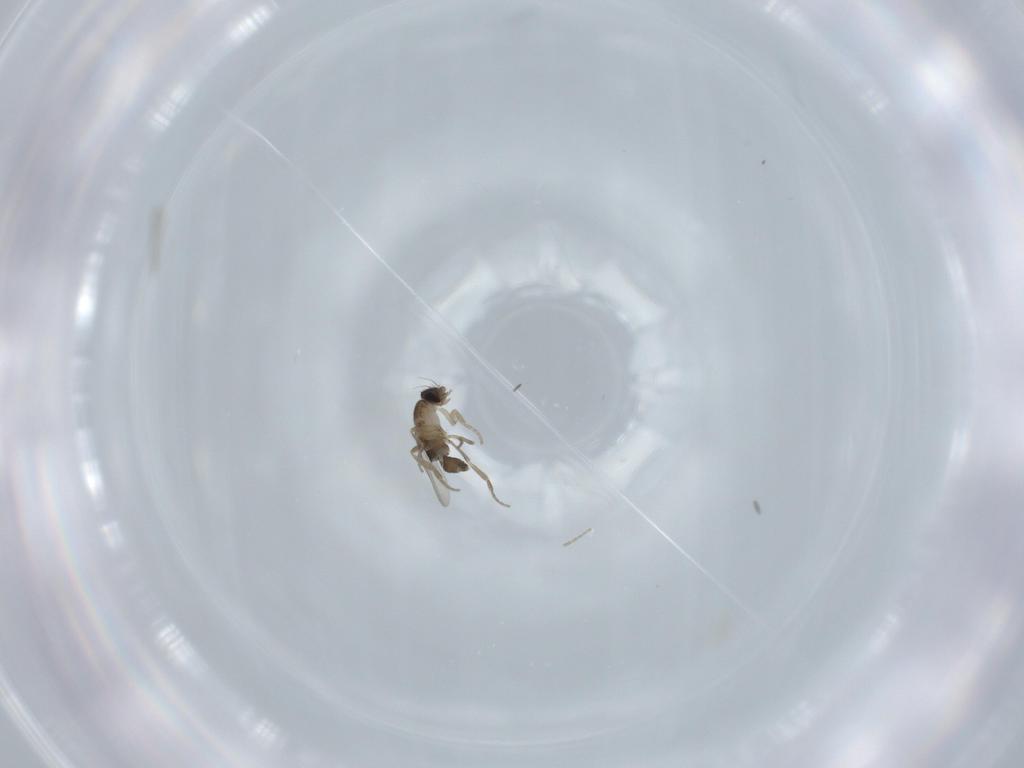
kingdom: Animalia
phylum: Arthropoda
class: Insecta
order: Diptera
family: Phoridae
